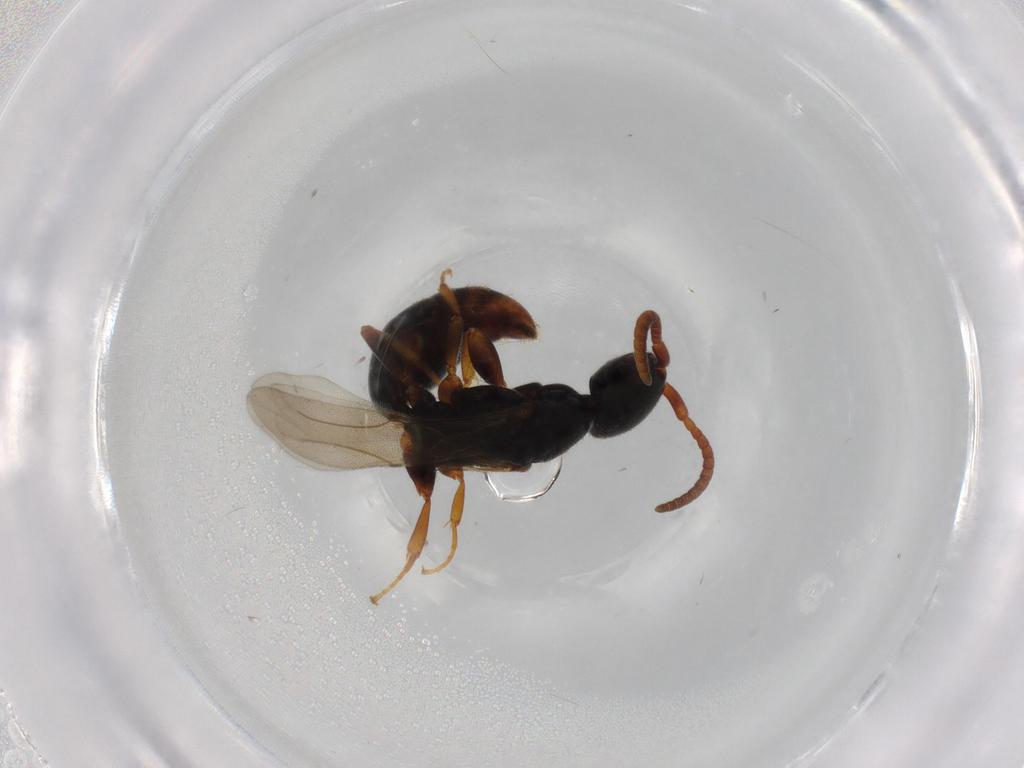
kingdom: Animalia
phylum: Arthropoda
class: Insecta
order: Hymenoptera
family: Bethylidae
